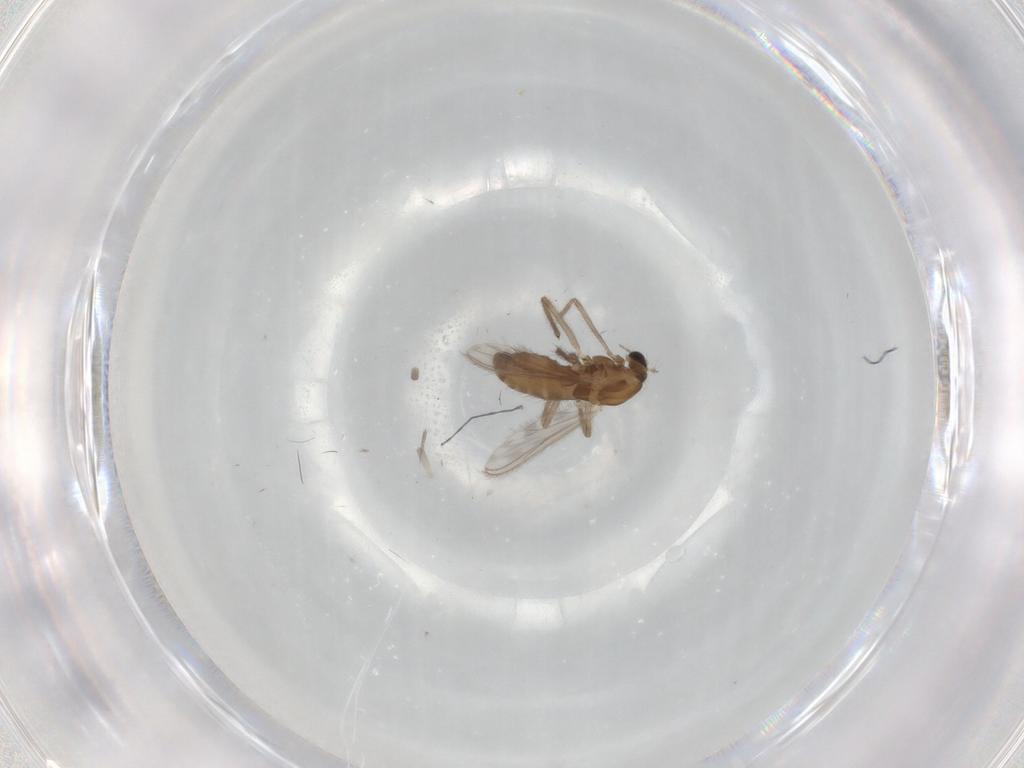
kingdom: Animalia
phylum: Arthropoda
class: Insecta
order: Diptera
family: Chironomidae
